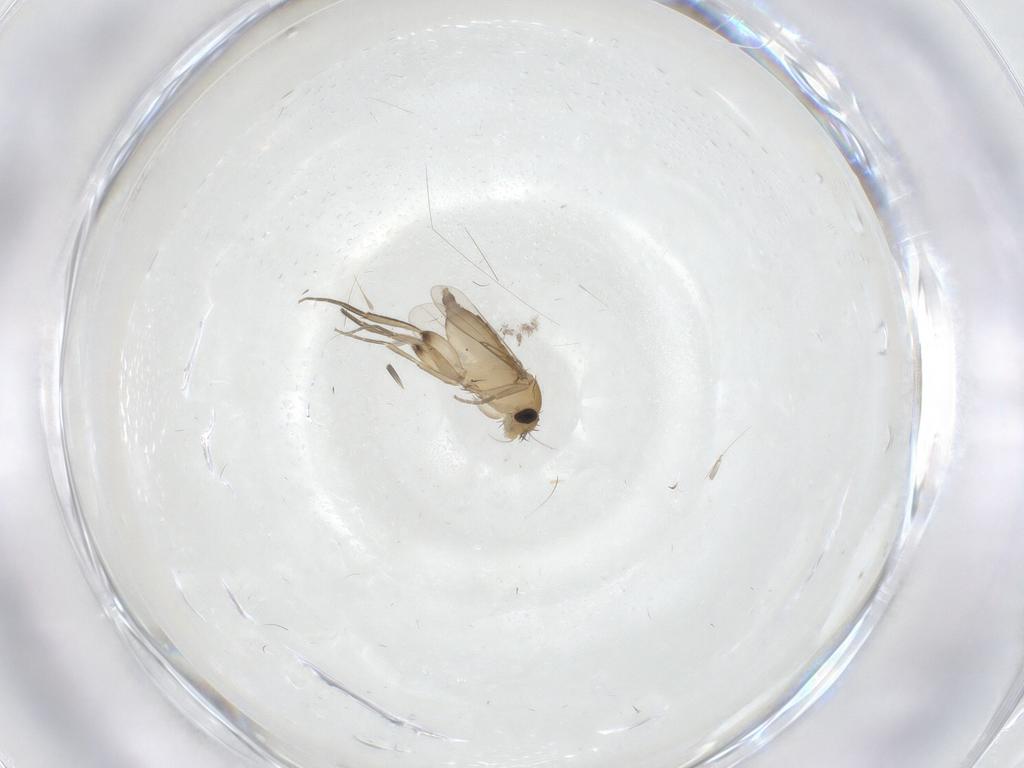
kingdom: Animalia
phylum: Arthropoda
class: Insecta
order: Diptera
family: Phoridae
